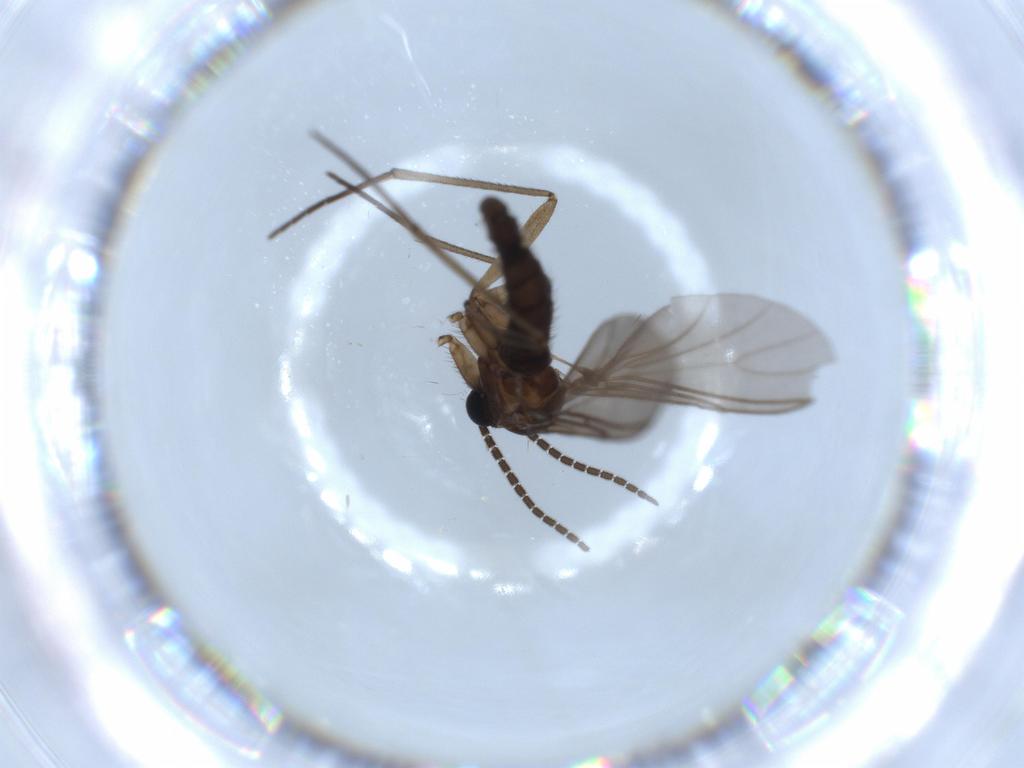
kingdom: Animalia
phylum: Arthropoda
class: Insecta
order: Diptera
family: Sciaridae
